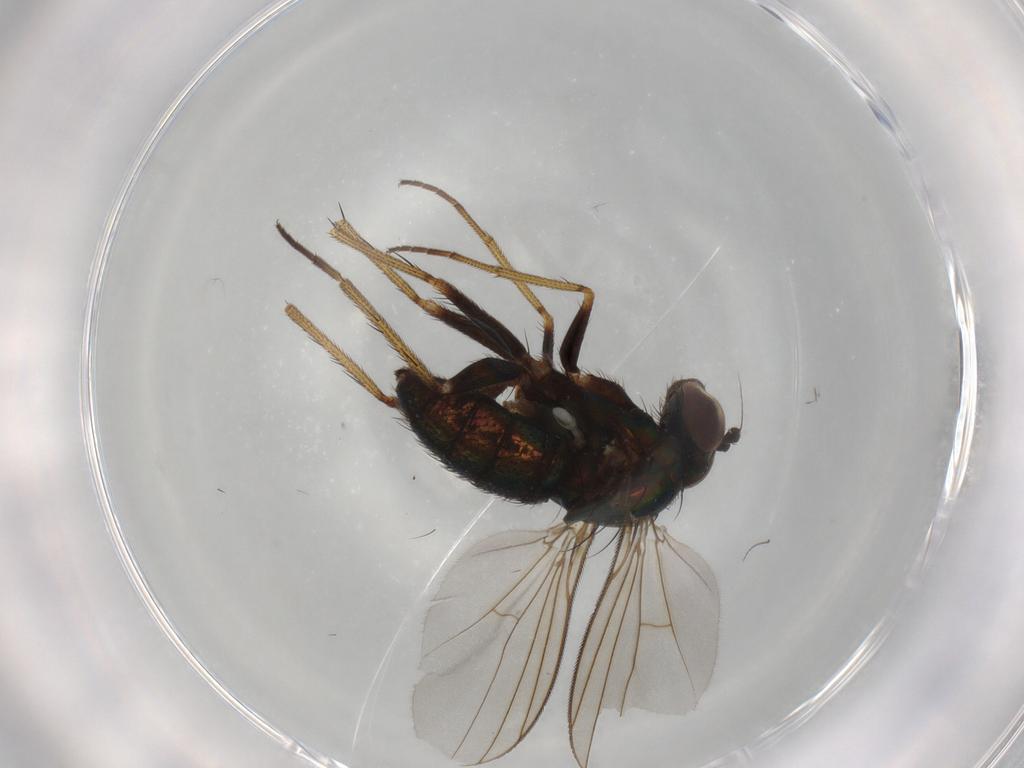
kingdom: Animalia
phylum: Arthropoda
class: Insecta
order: Diptera
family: Dolichopodidae
